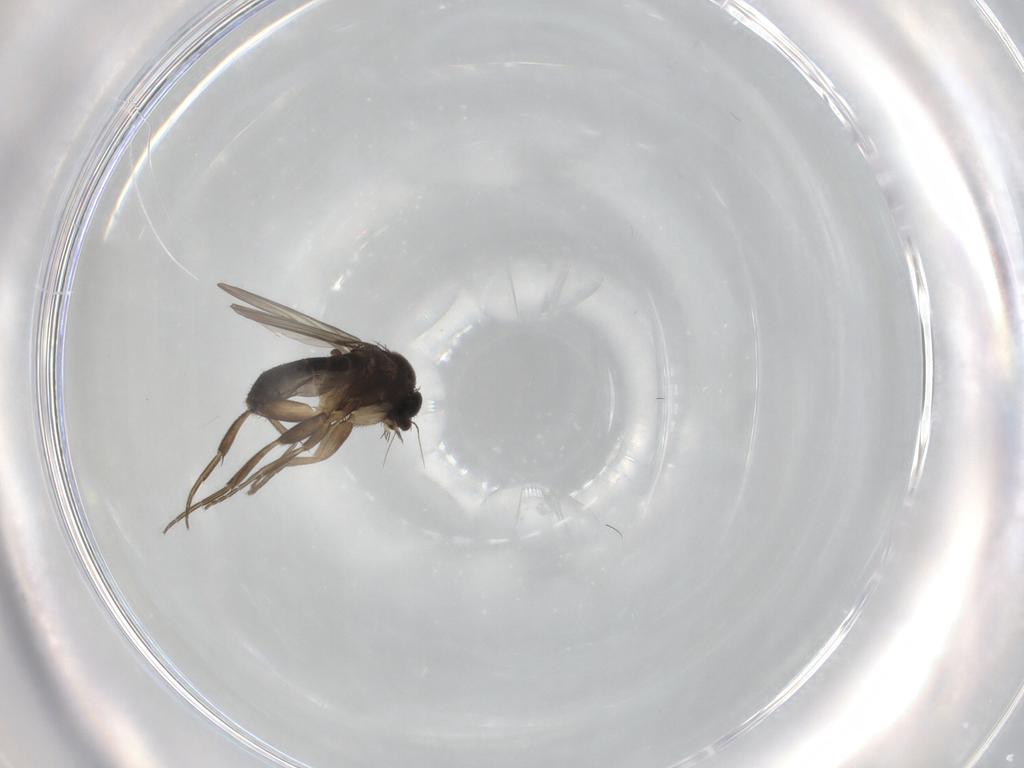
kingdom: Animalia
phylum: Arthropoda
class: Insecta
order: Diptera
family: Phoridae
